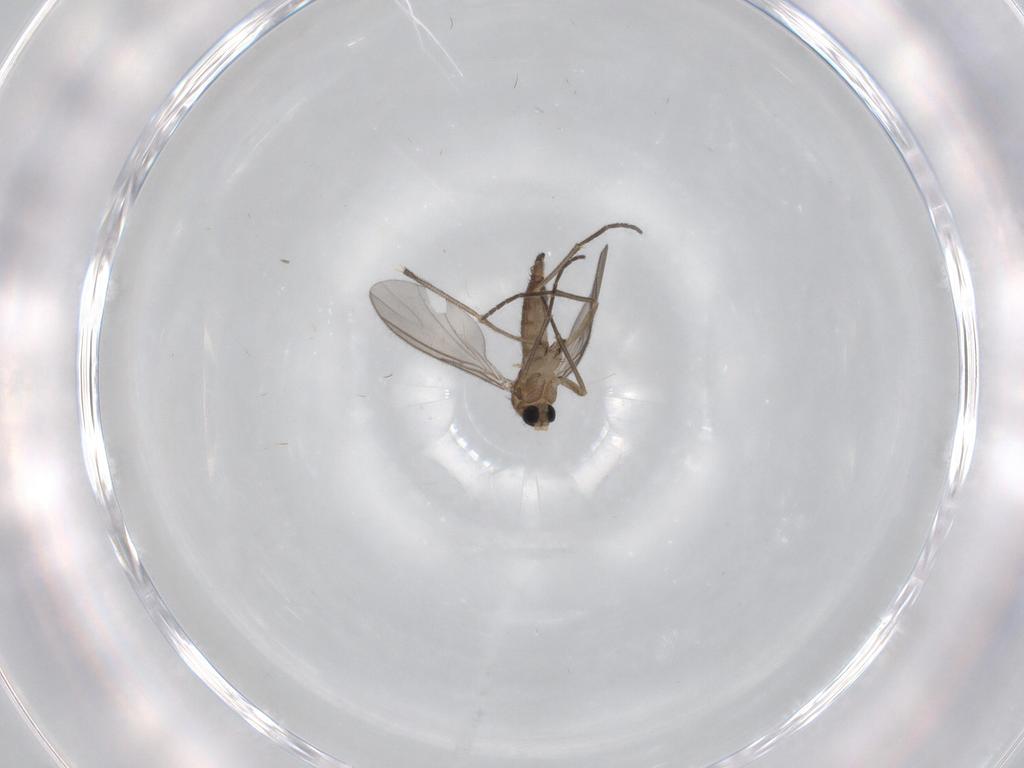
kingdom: Animalia
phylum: Arthropoda
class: Insecta
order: Diptera
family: Sciaridae
